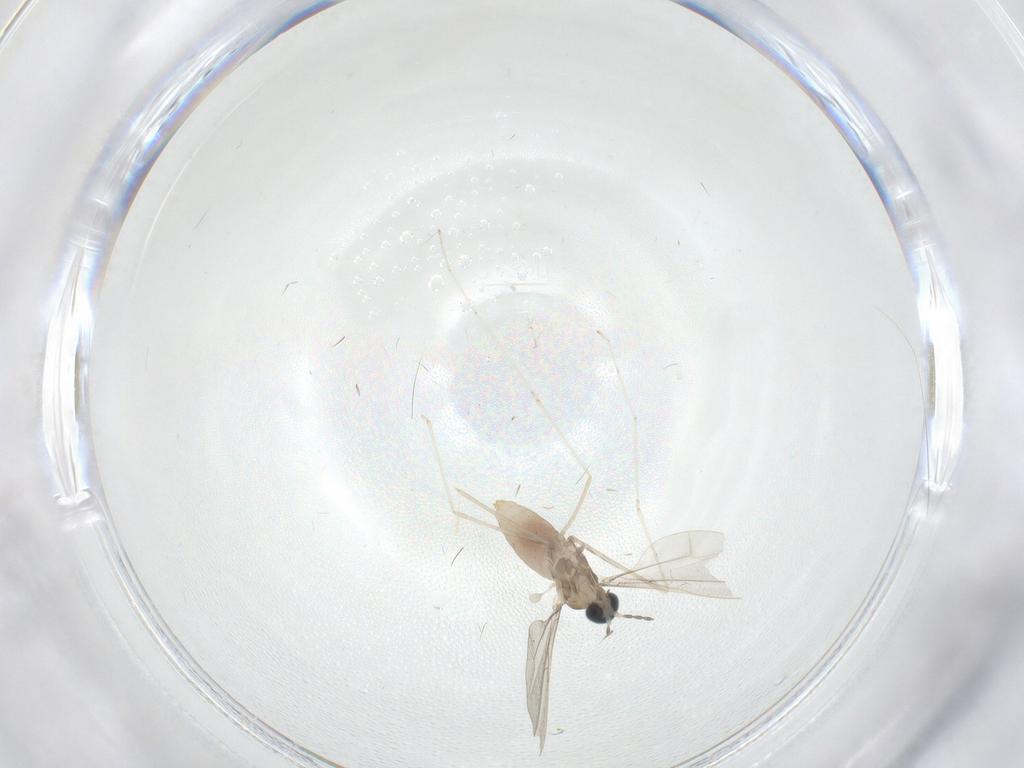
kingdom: Animalia
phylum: Arthropoda
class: Insecta
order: Diptera
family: Cecidomyiidae
